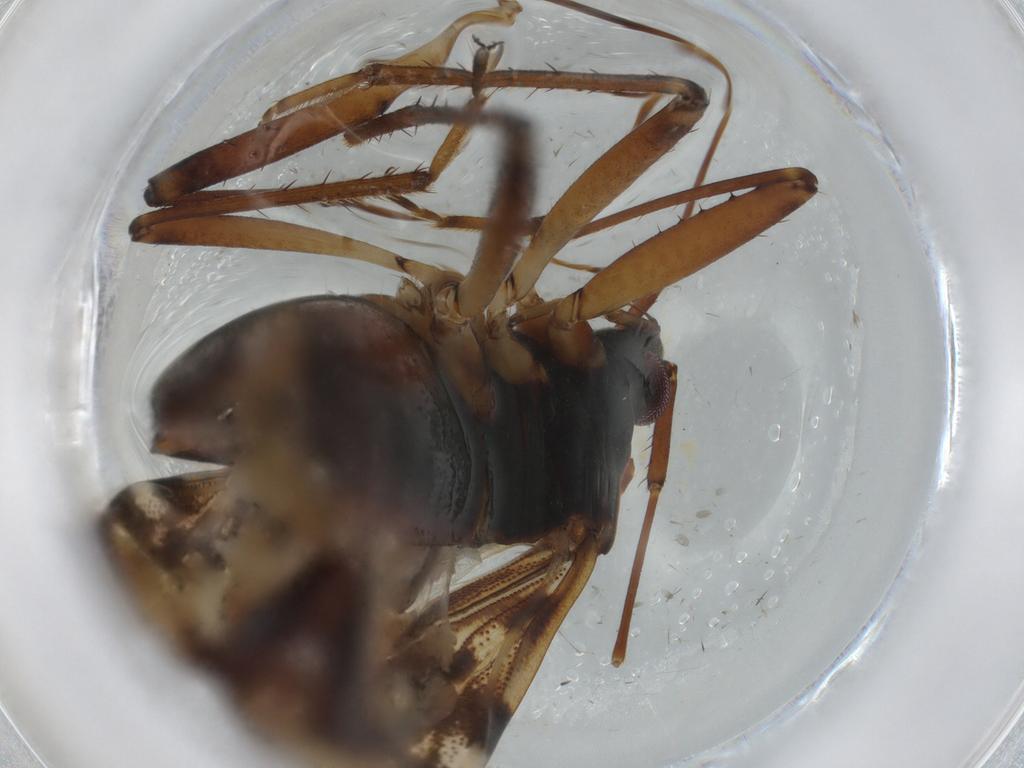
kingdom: Animalia
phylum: Arthropoda
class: Insecta
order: Hemiptera
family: Rhyparochromidae
